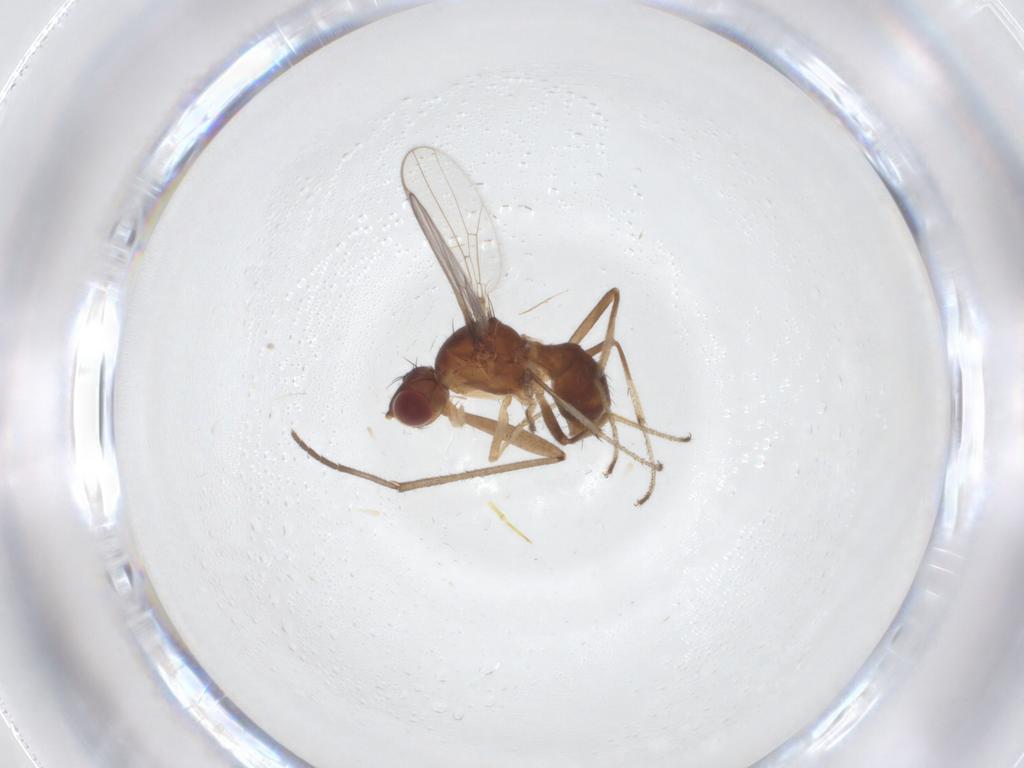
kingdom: Animalia
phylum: Arthropoda
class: Insecta
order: Diptera
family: Sepsidae
